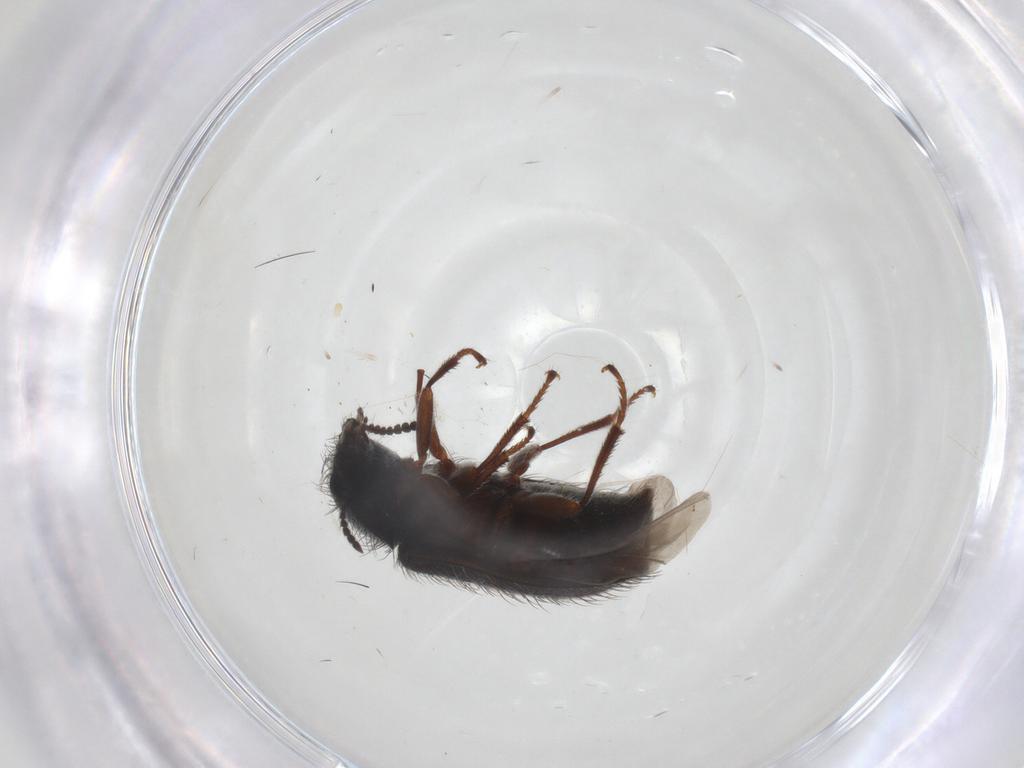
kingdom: Animalia
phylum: Arthropoda
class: Insecta
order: Coleoptera
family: Melyridae
